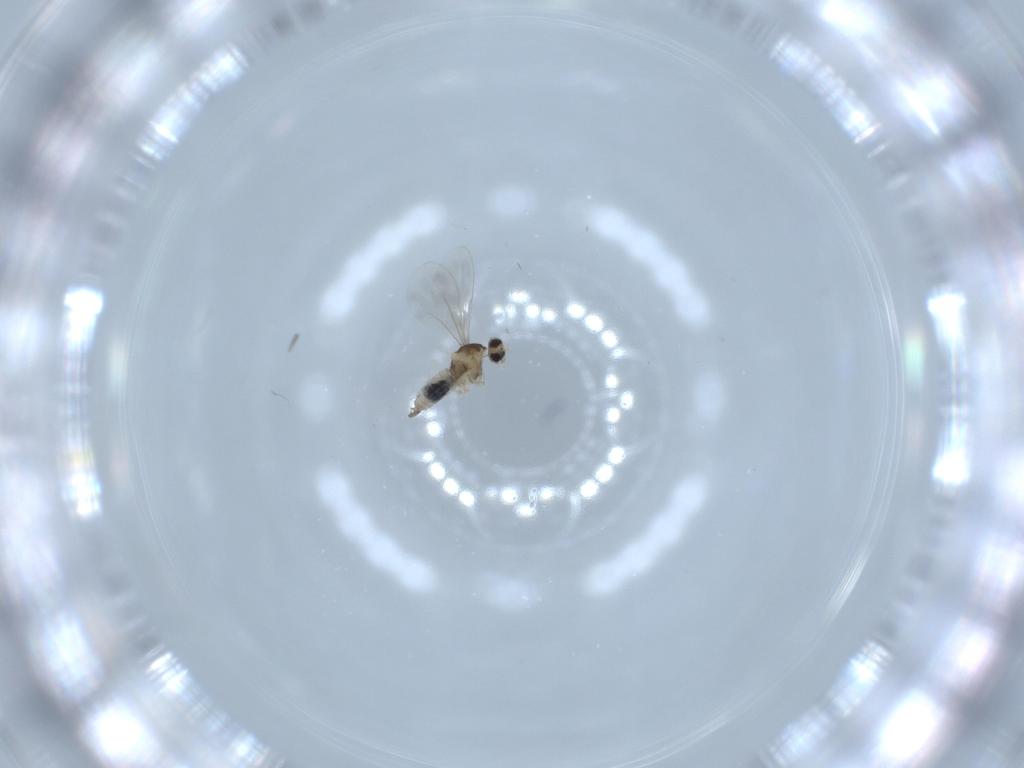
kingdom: Animalia
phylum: Arthropoda
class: Insecta
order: Diptera
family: Cecidomyiidae
